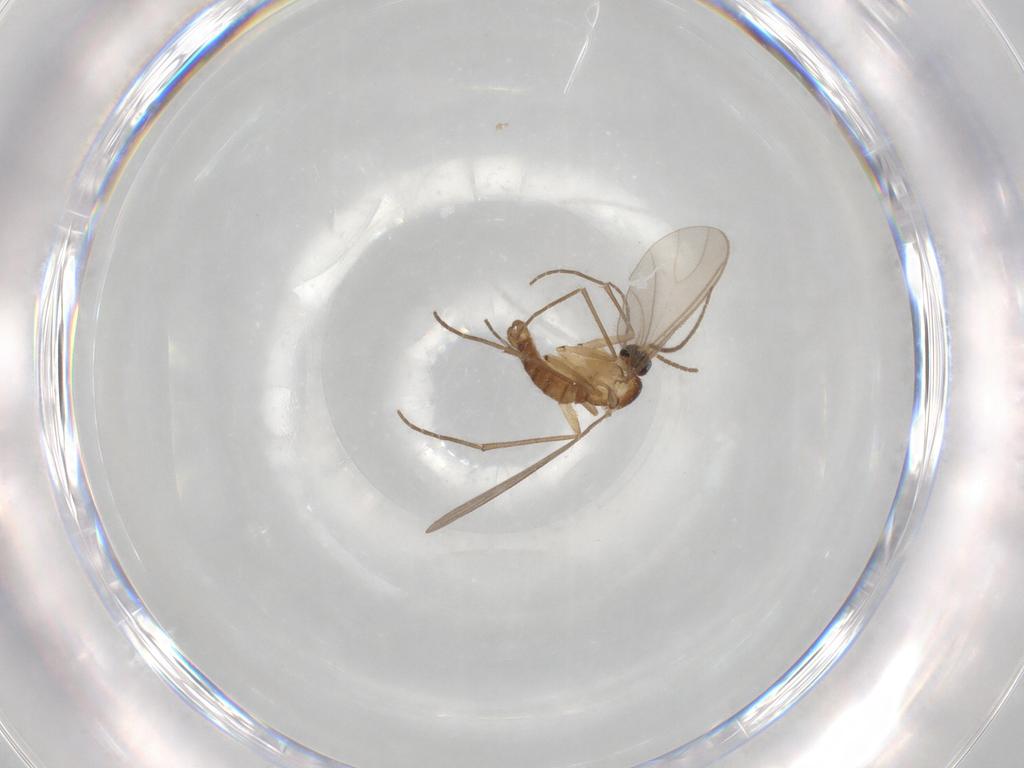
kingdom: Animalia
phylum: Arthropoda
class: Insecta
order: Diptera
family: Sciaridae
